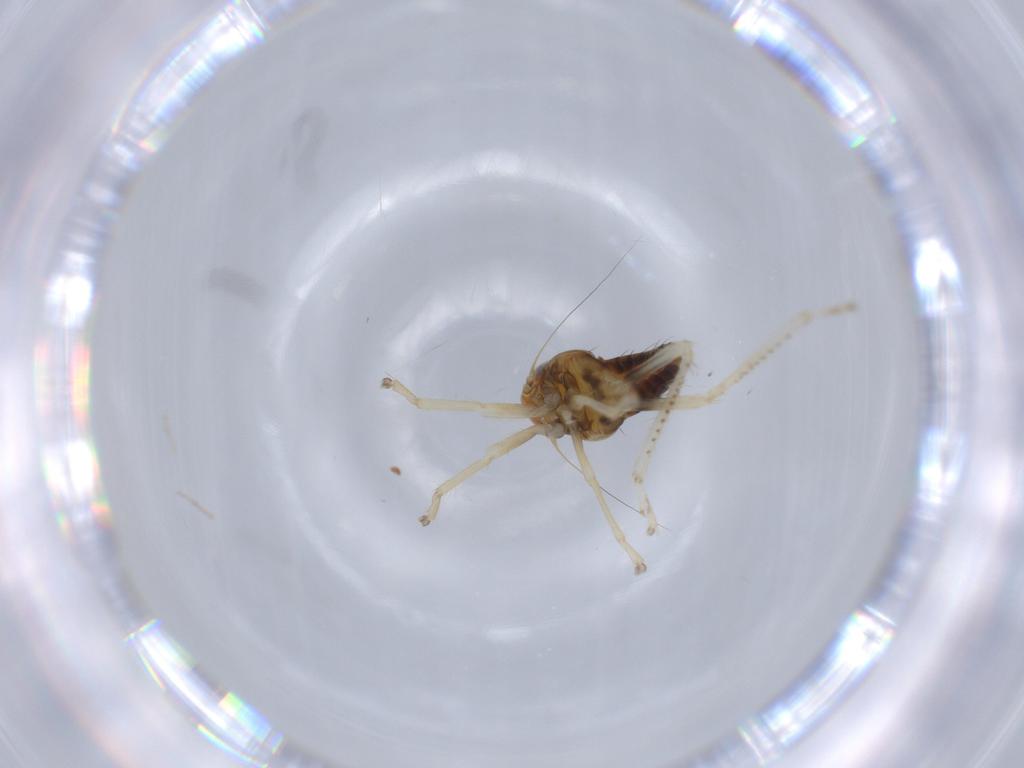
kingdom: Animalia
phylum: Arthropoda
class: Insecta
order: Hemiptera
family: Cicadellidae
